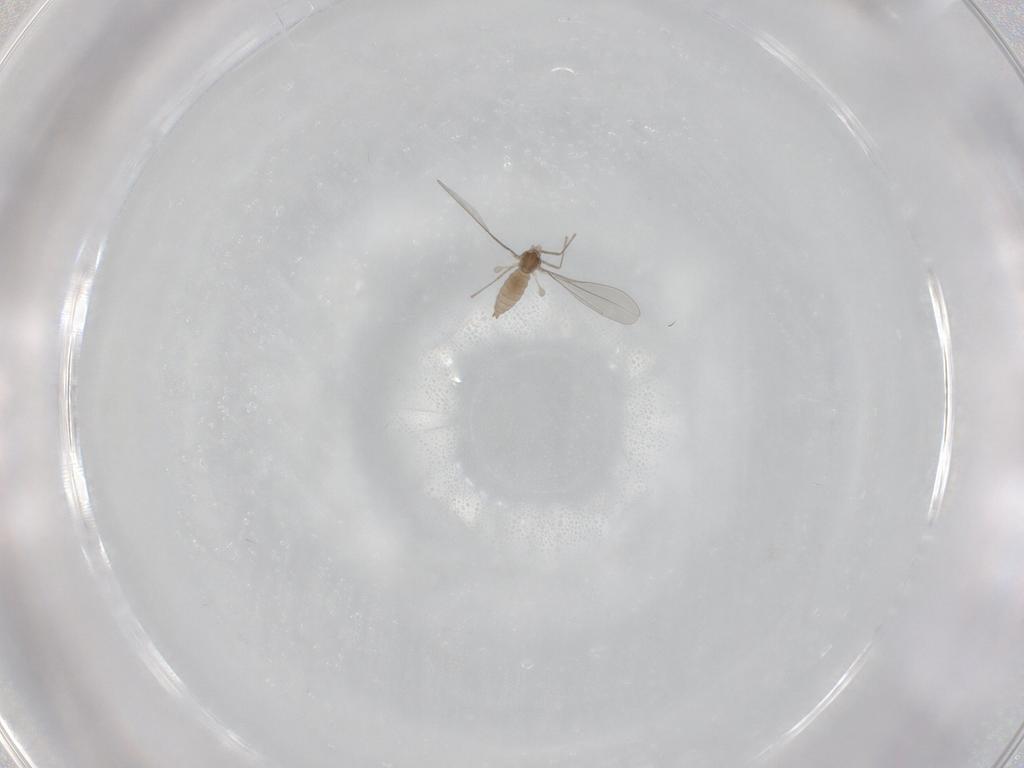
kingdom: Animalia
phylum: Arthropoda
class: Insecta
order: Diptera
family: Cecidomyiidae
